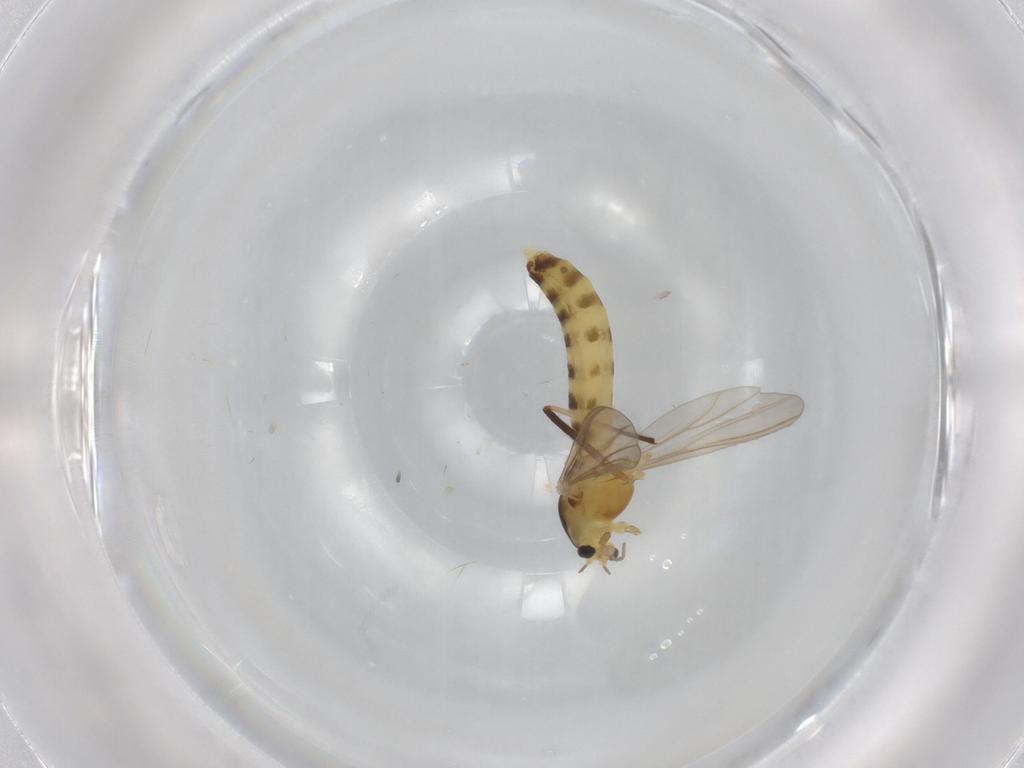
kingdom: Animalia
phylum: Arthropoda
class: Insecta
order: Diptera
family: Chironomidae
